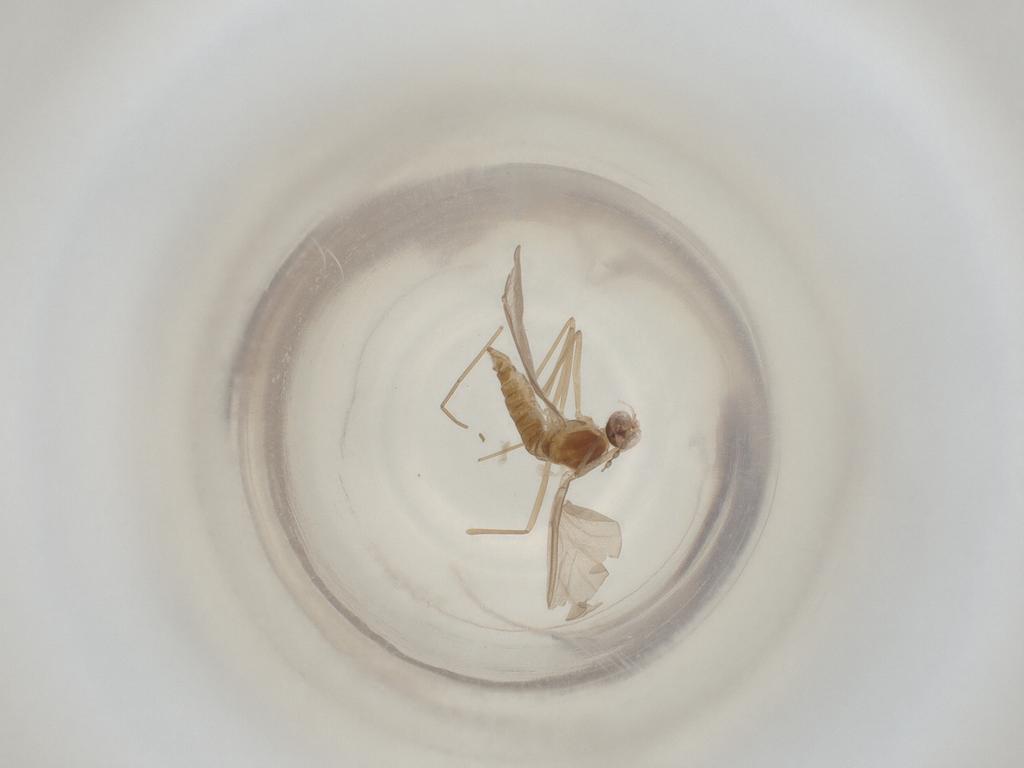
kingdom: Animalia
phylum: Arthropoda
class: Insecta
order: Diptera
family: Cecidomyiidae
